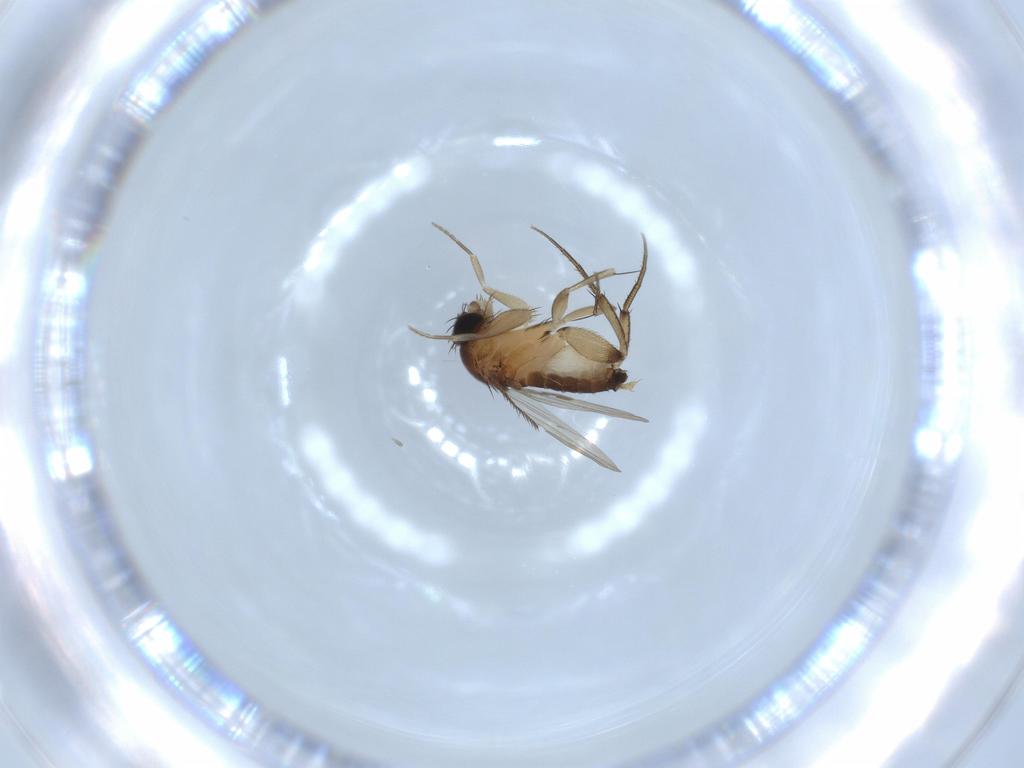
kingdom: Animalia
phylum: Arthropoda
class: Insecta
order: Diptera
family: Phoridae
